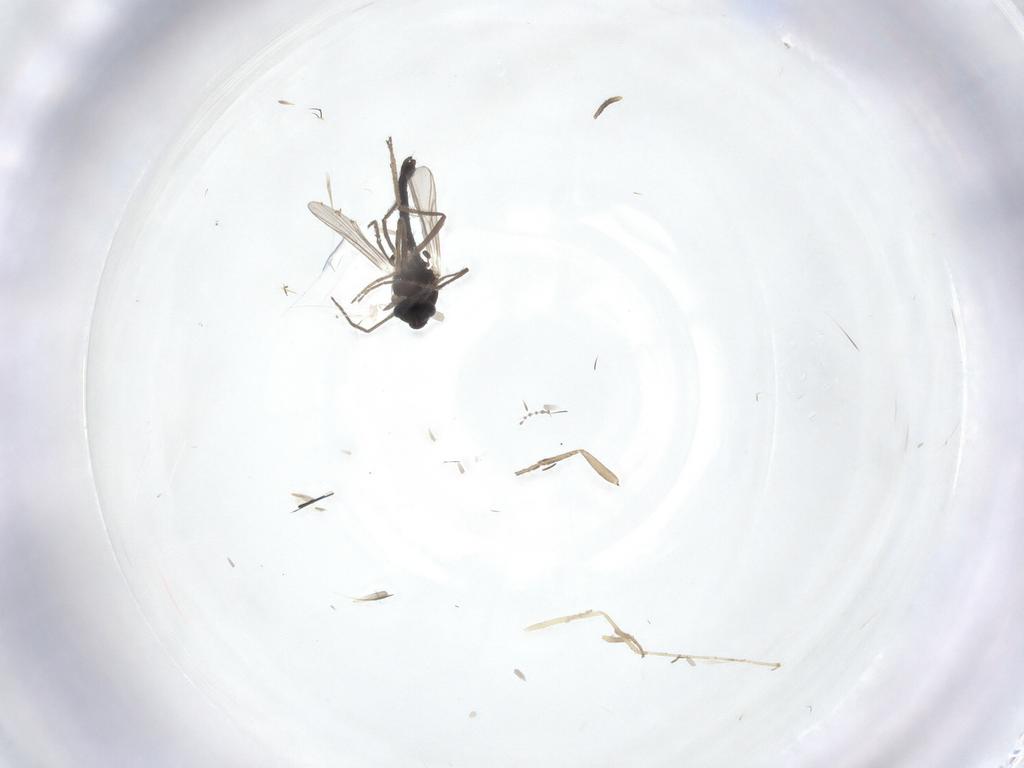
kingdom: Animalia
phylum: Arthropoda
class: Insecta
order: Diptera
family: Chironomidae
